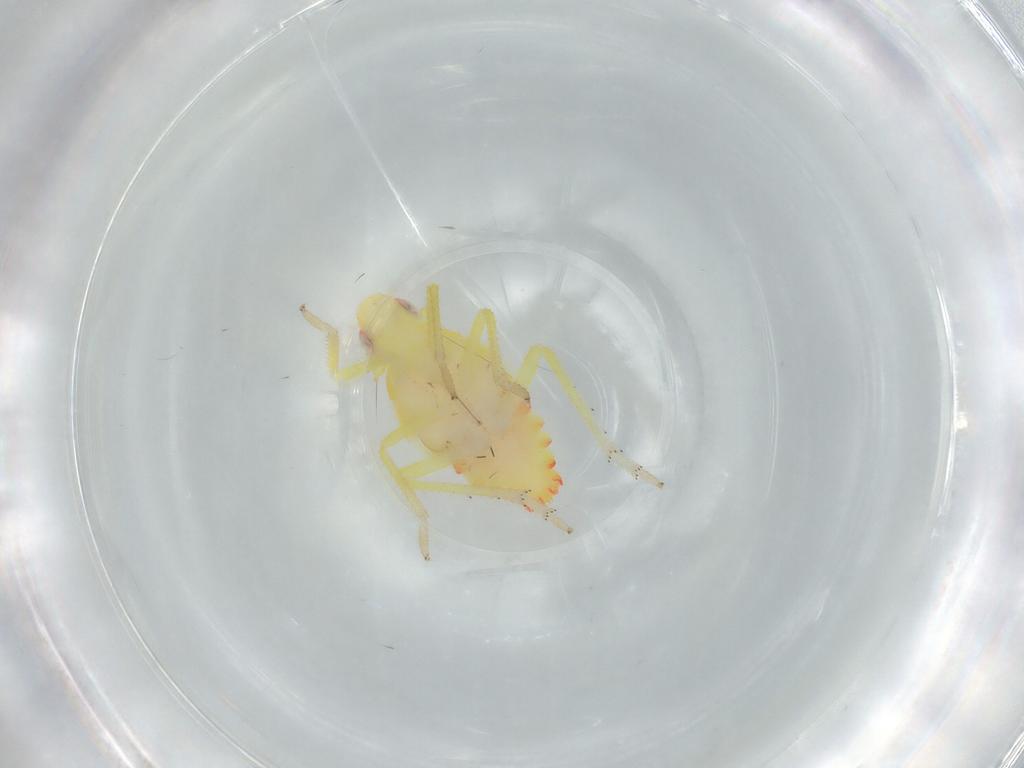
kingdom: Animalia
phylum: Arthropoda
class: Insecta
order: Hemiptera
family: Tropiduchidae
